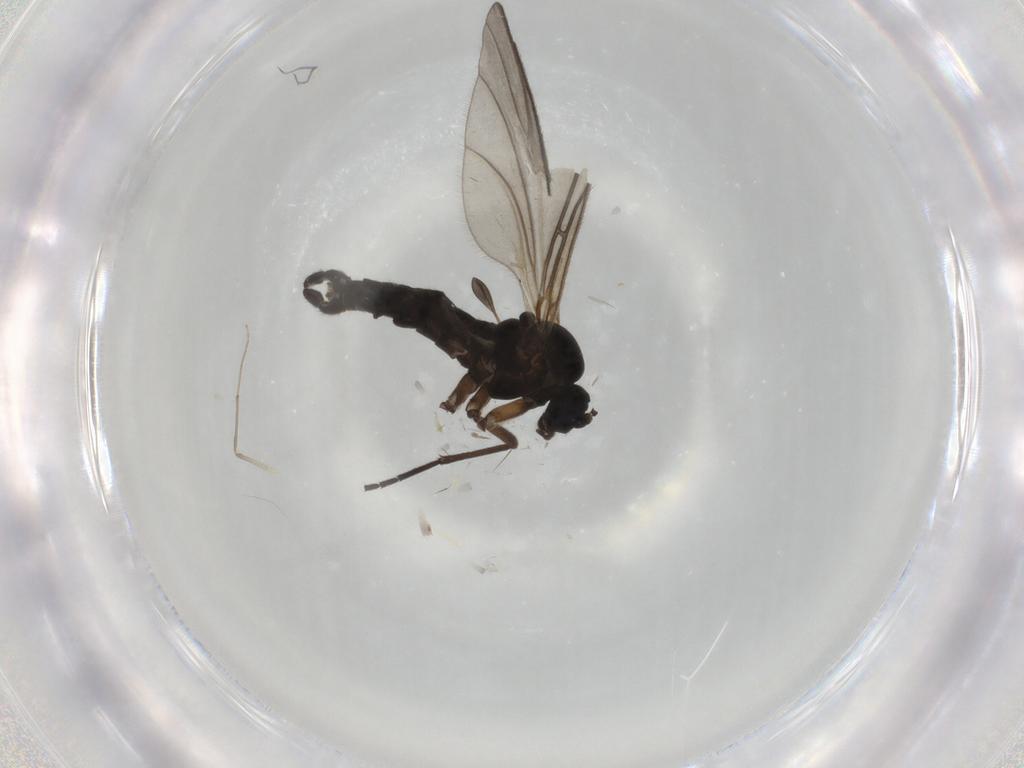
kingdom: Animalia
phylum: Arthropoda
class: Insecta
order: Diptera
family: Sciaridae
